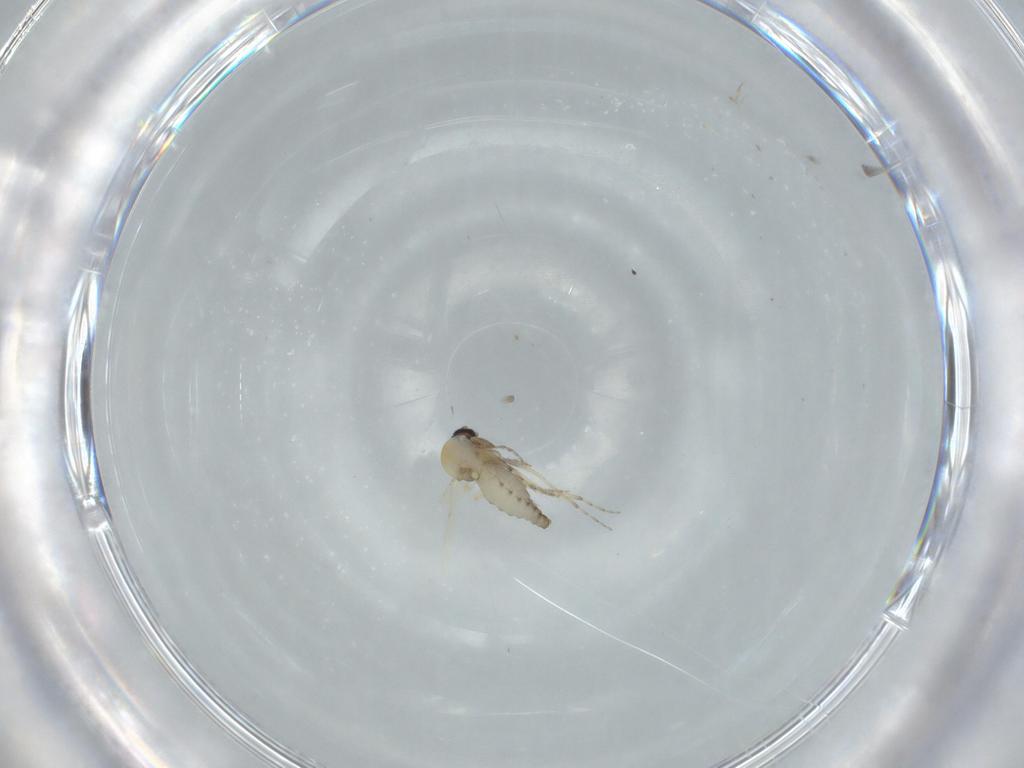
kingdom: Animalia
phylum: Arthropoda
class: Insecta
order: Diptera
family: Ceratopogonidae
